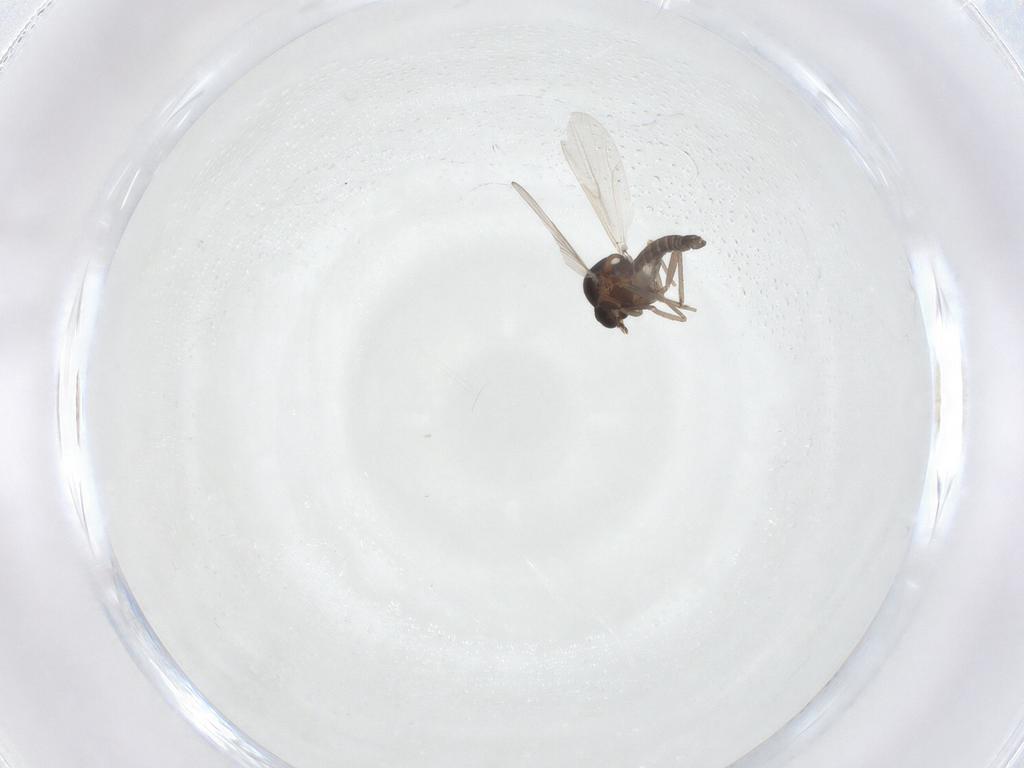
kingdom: Animalia
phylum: Arthropoda
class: Insecta
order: Diptera
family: Ceratopogonidae
